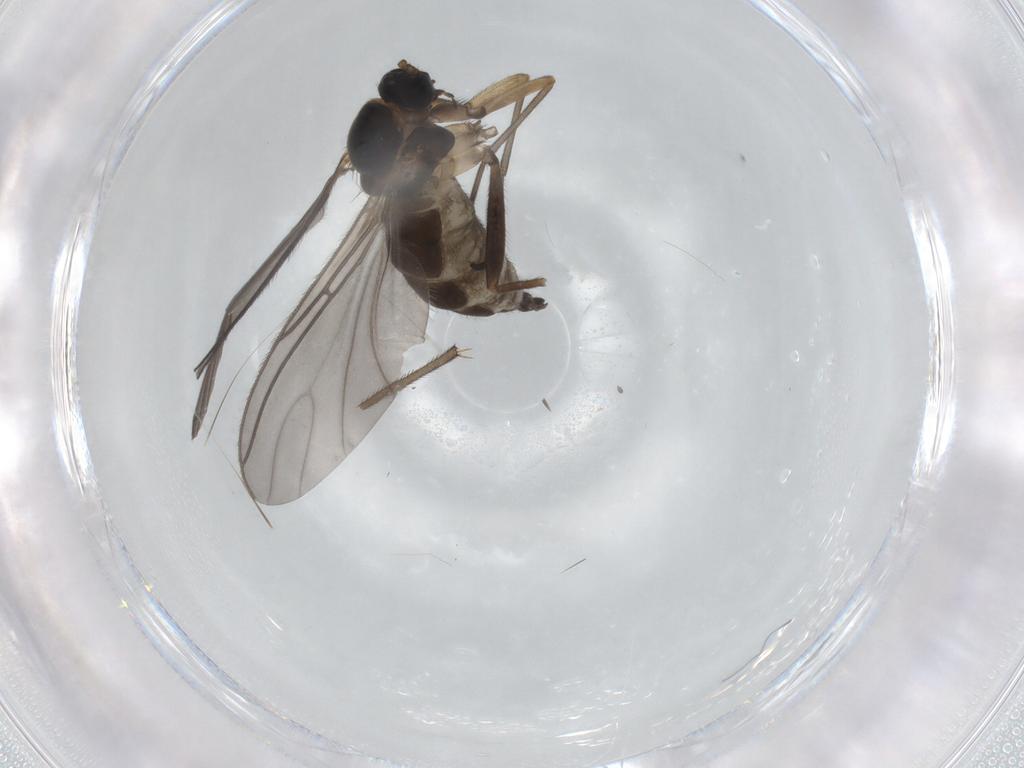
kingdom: Animalia
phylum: Arthropoda
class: Insecta
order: Diptera
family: Sciaridae
